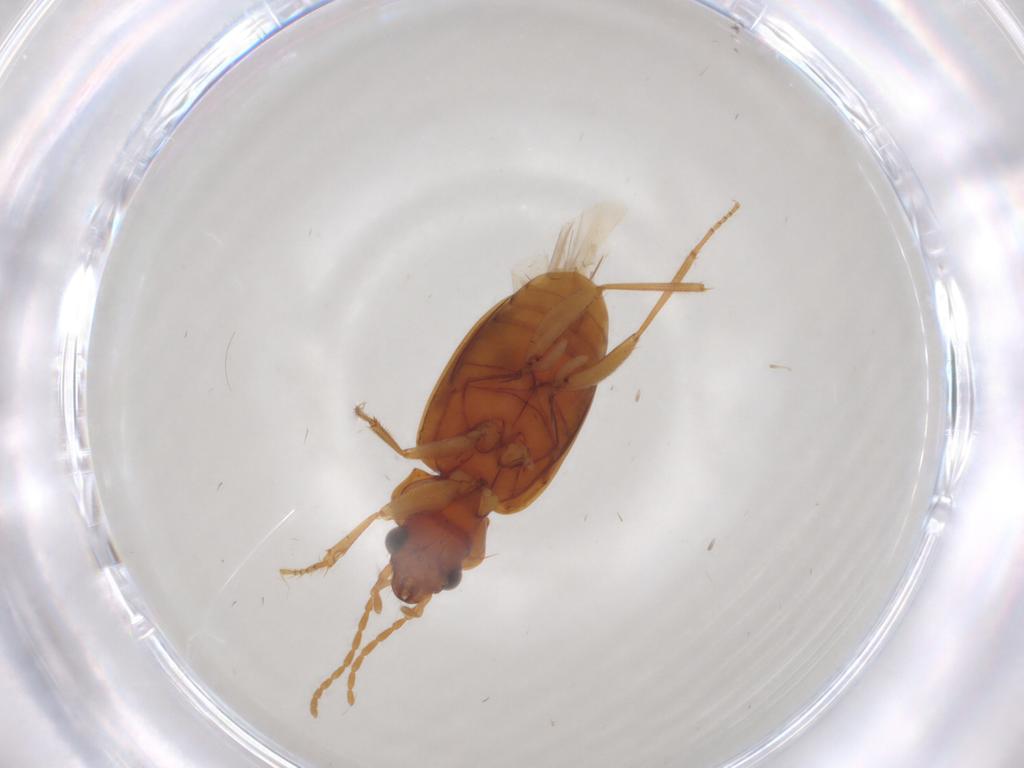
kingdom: Animalia
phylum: Arthropoda
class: Insecta
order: Coleoptera
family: Carabidae
